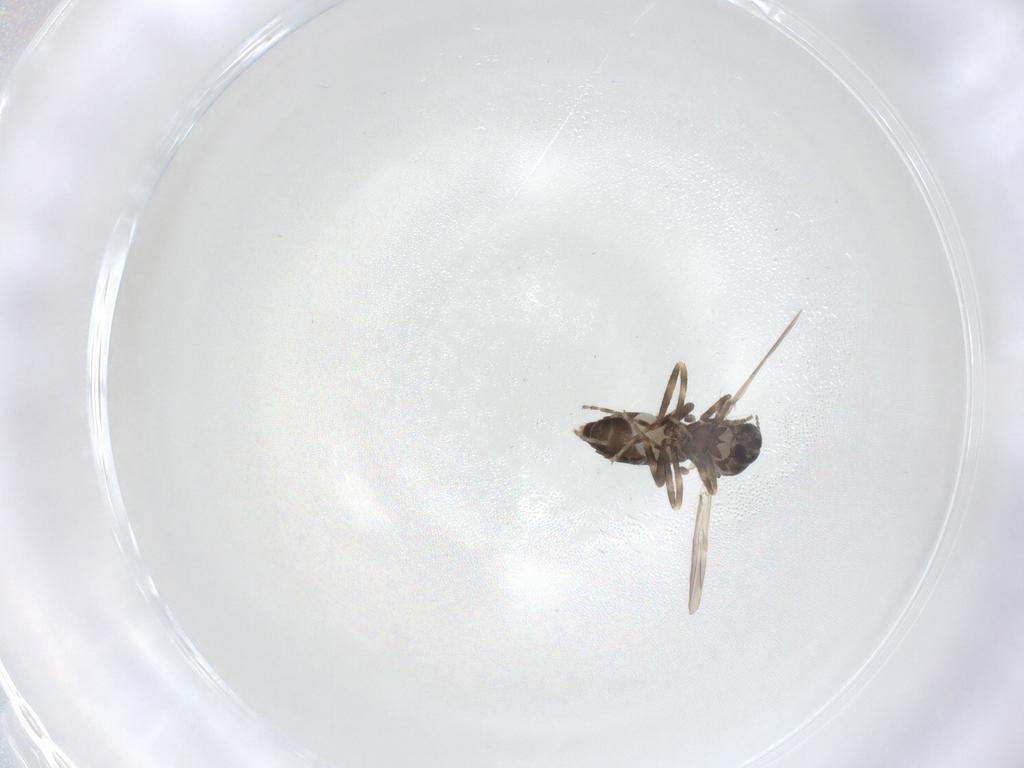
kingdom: Animalia
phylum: Arthropoda
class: Insecta
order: Diptera
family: Ceratopogonidae
